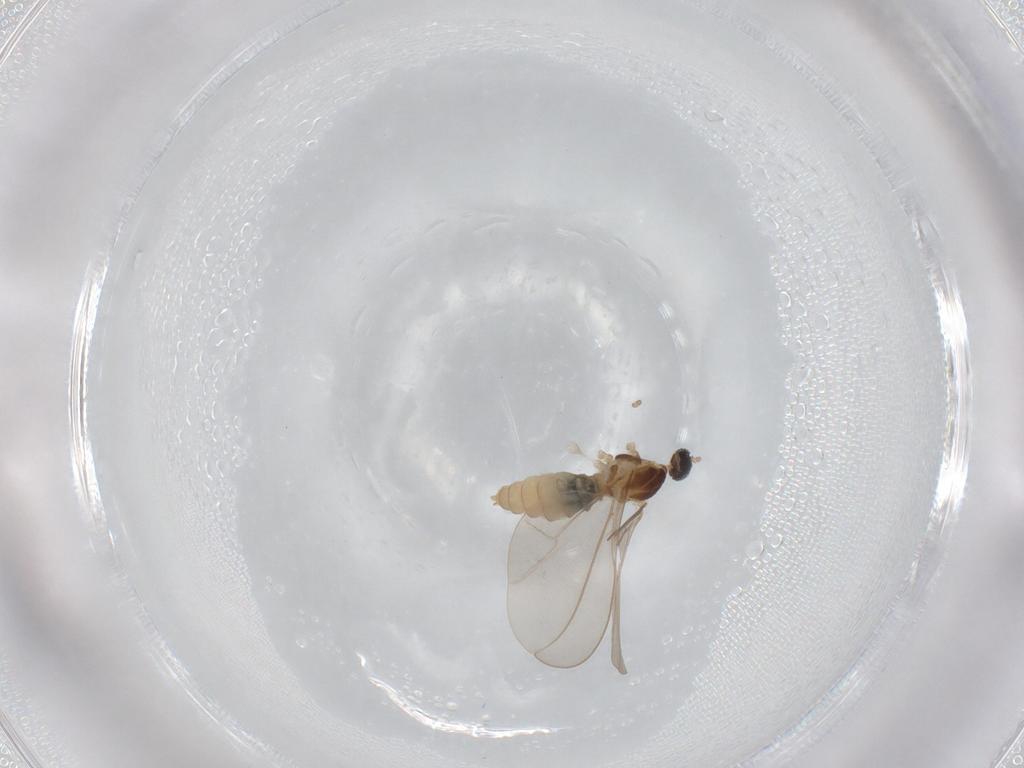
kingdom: Animalia
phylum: Arthropoda
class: Insecta
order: Diptera
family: Cecidomyiidae
